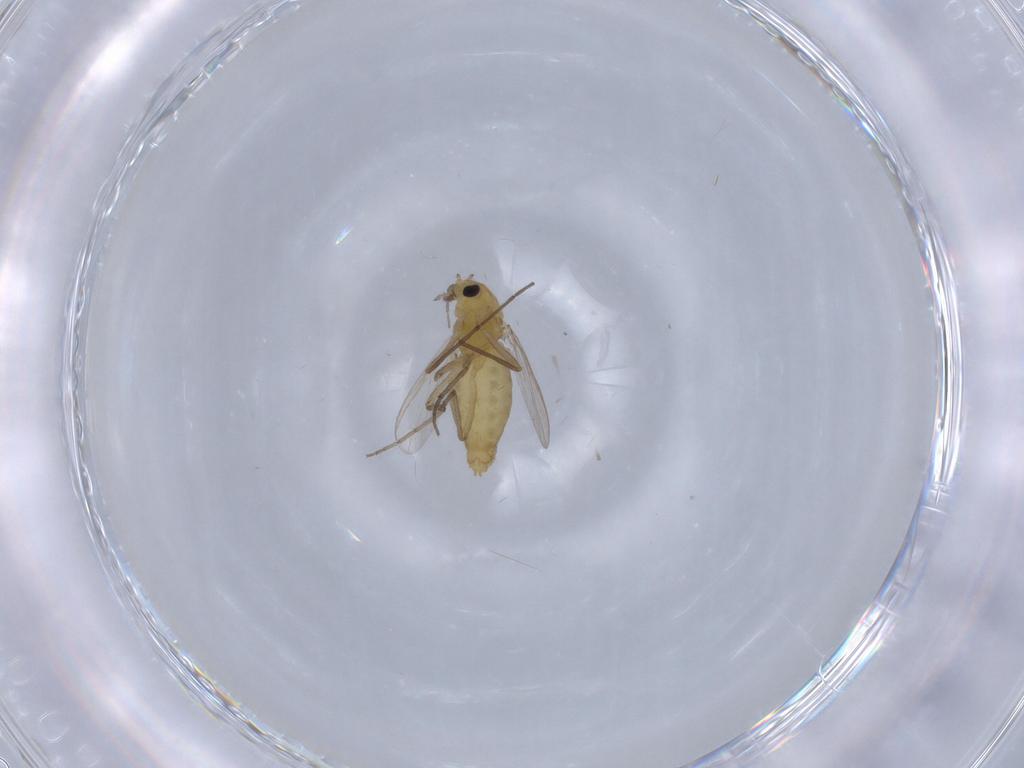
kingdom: Animalia
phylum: Arthropoda
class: Insecta
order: Diptera
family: Chironomidae
